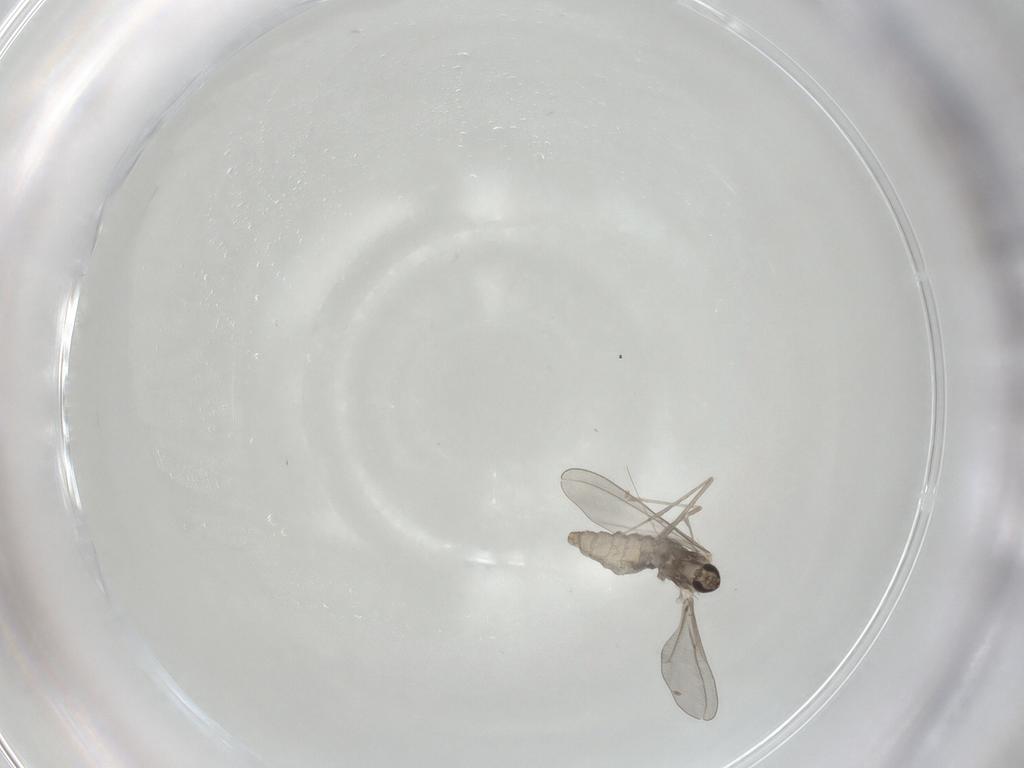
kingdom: Animalia
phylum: Arthropoda
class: Insecta
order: Diptera
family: Cecidomyiidae
